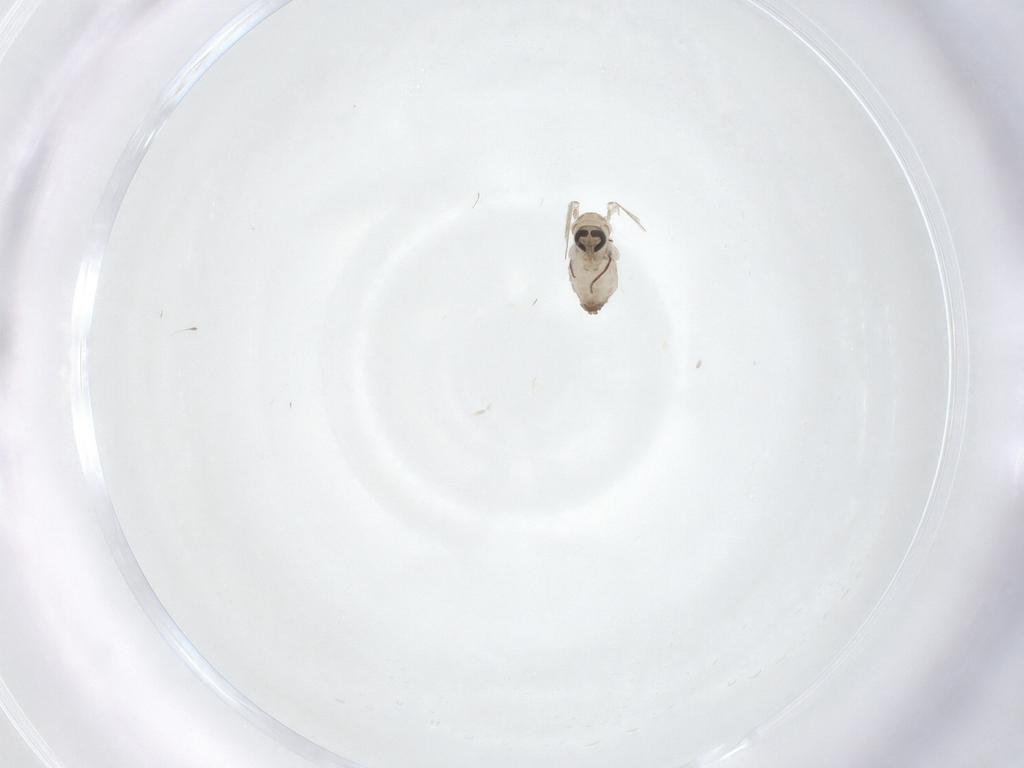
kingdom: Animalia
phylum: Arthropoda
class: Insecta
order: Diptera
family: Psychodidae
